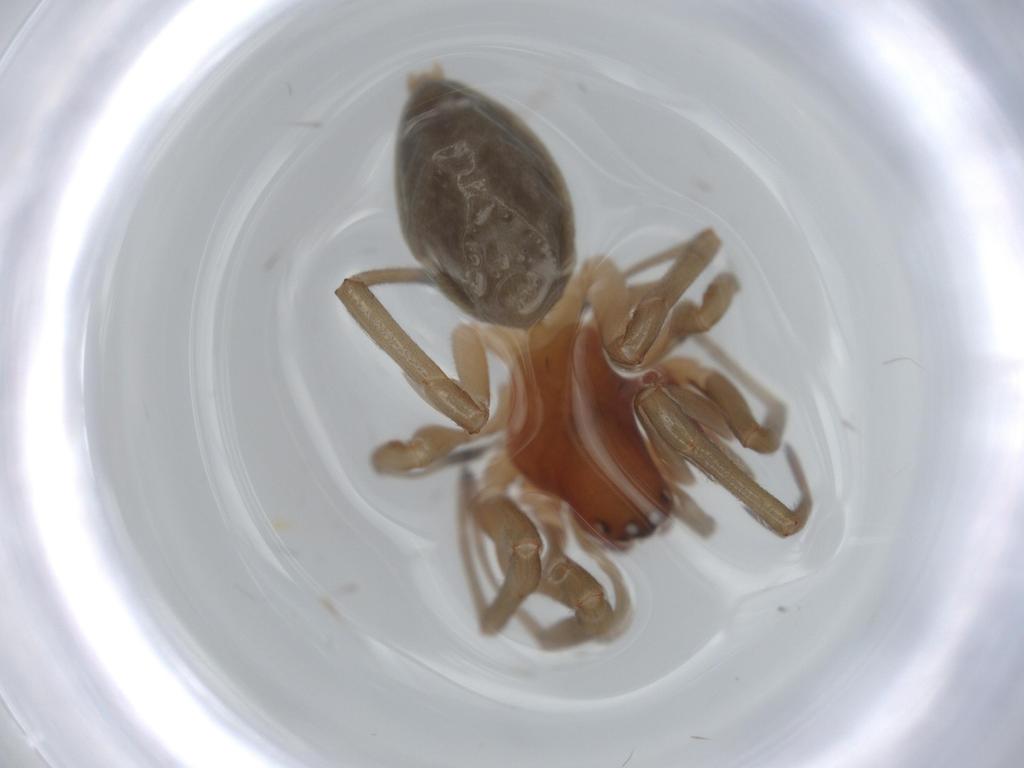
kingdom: Animalia
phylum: Arthropoda
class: Arachnida
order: Araneae
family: Trachelidae
